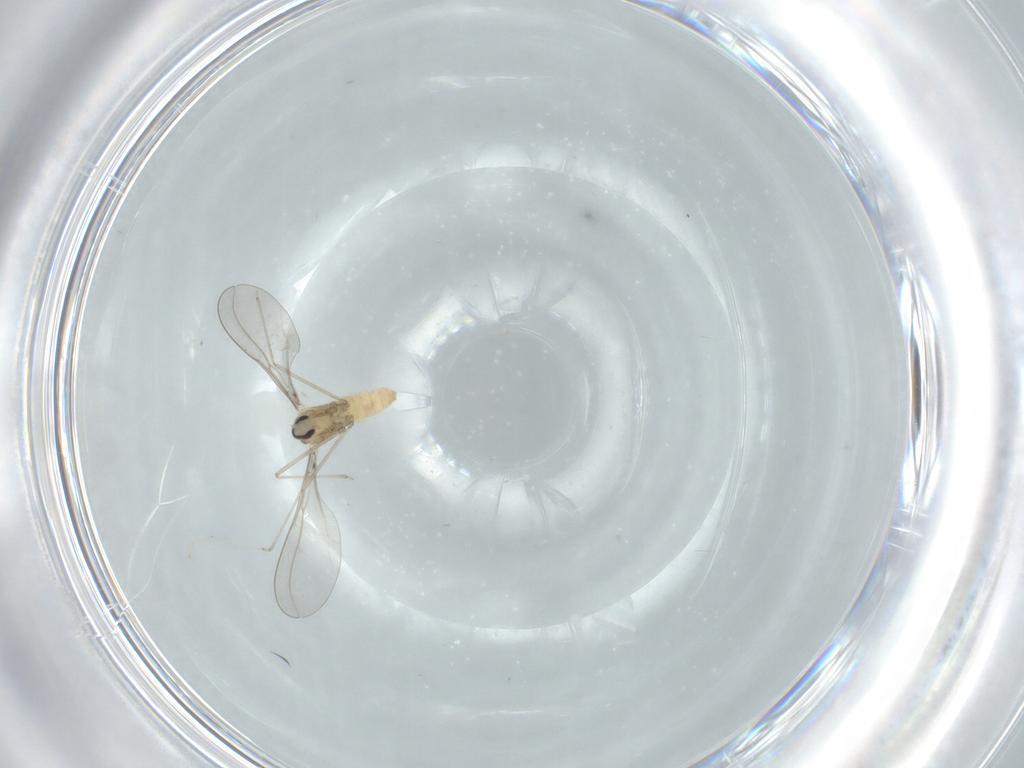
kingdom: Animalia
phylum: Arthropoda
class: Insecta
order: Diptera
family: Cecidomyiidae
